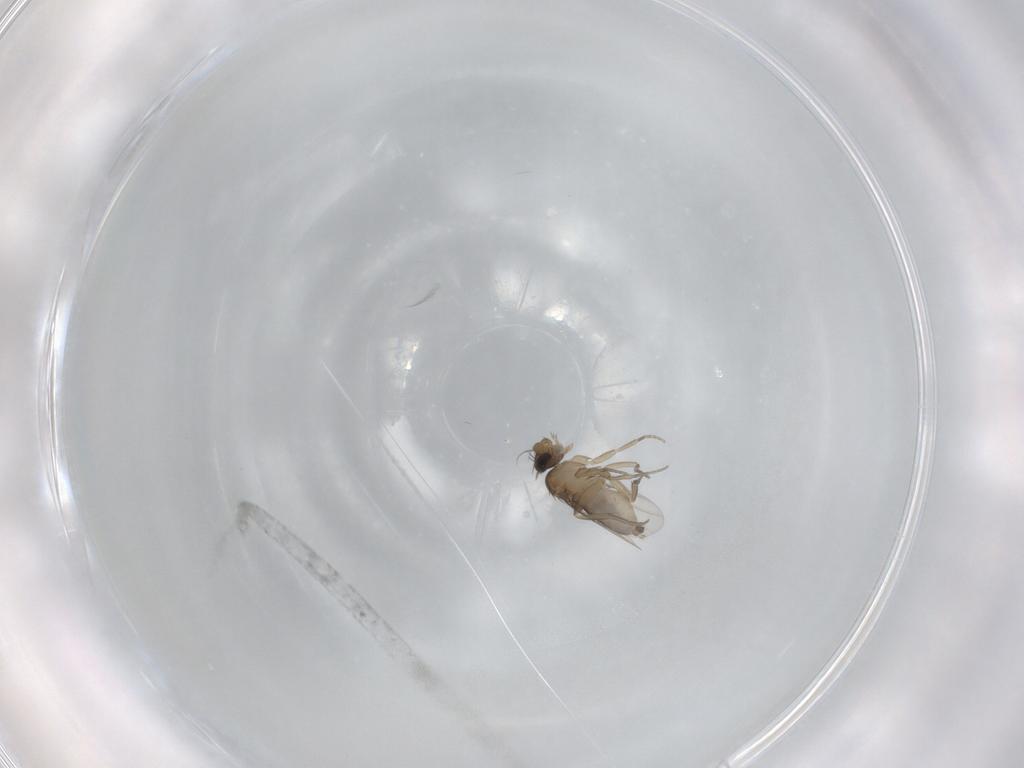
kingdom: Animalia
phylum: Arthropoda
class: Insecta
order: Diptera
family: Phoridae
